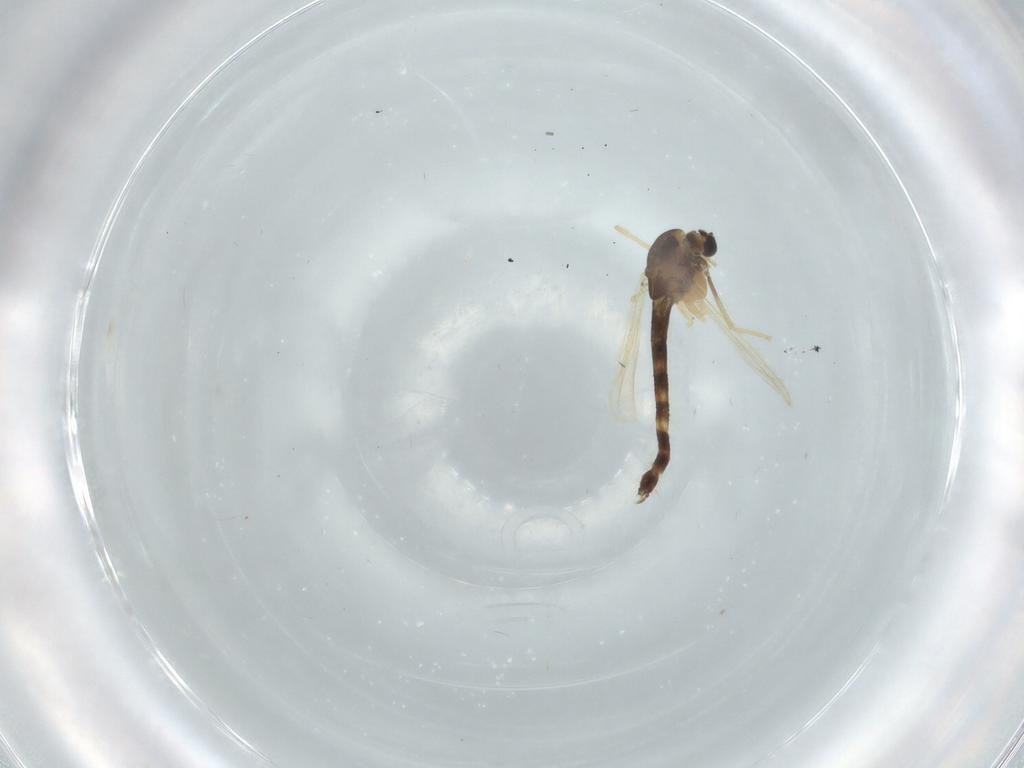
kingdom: Animalia
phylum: Arthropoda
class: Insecta
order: Diptera
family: Chironomidae
